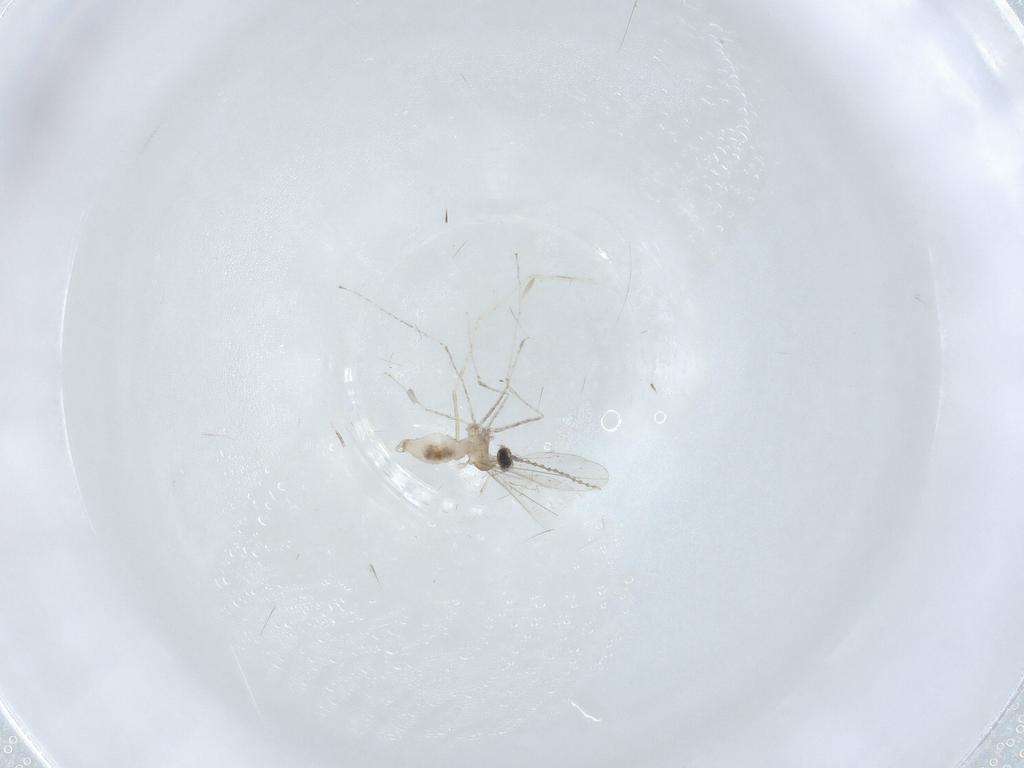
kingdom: Animalia
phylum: Arthropoda
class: Insecta
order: Diptera
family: Cecidomyiidae
